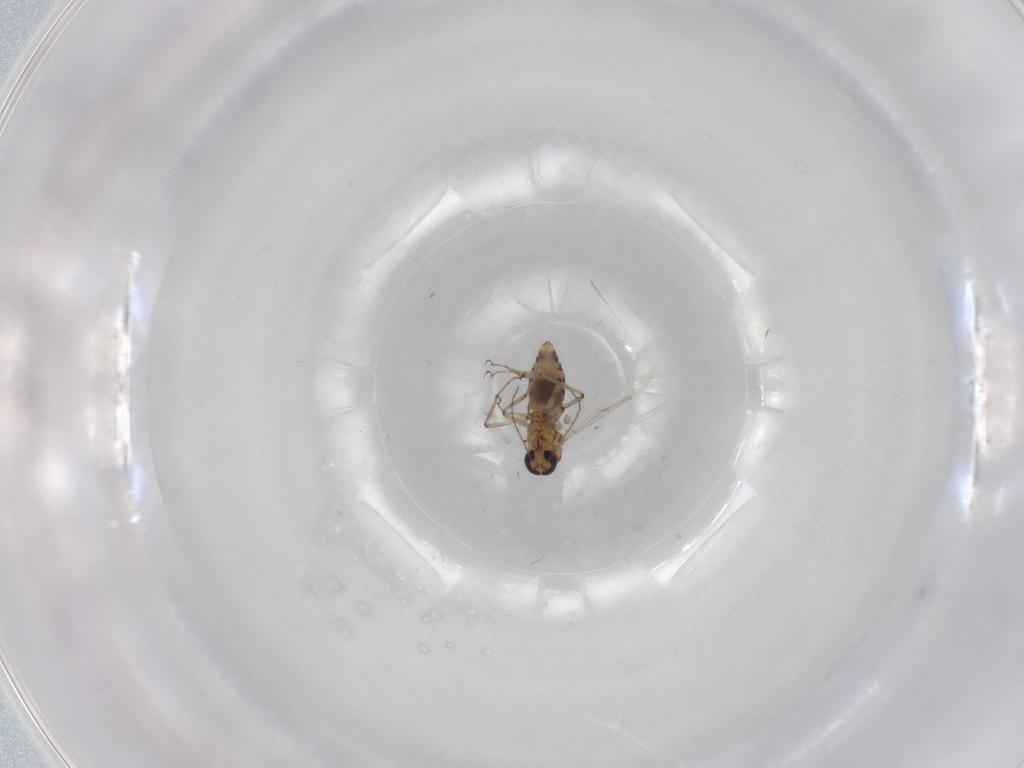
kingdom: Animalia
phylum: Arthropoda
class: Insecta
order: Diptera
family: Ceratopogonidae
